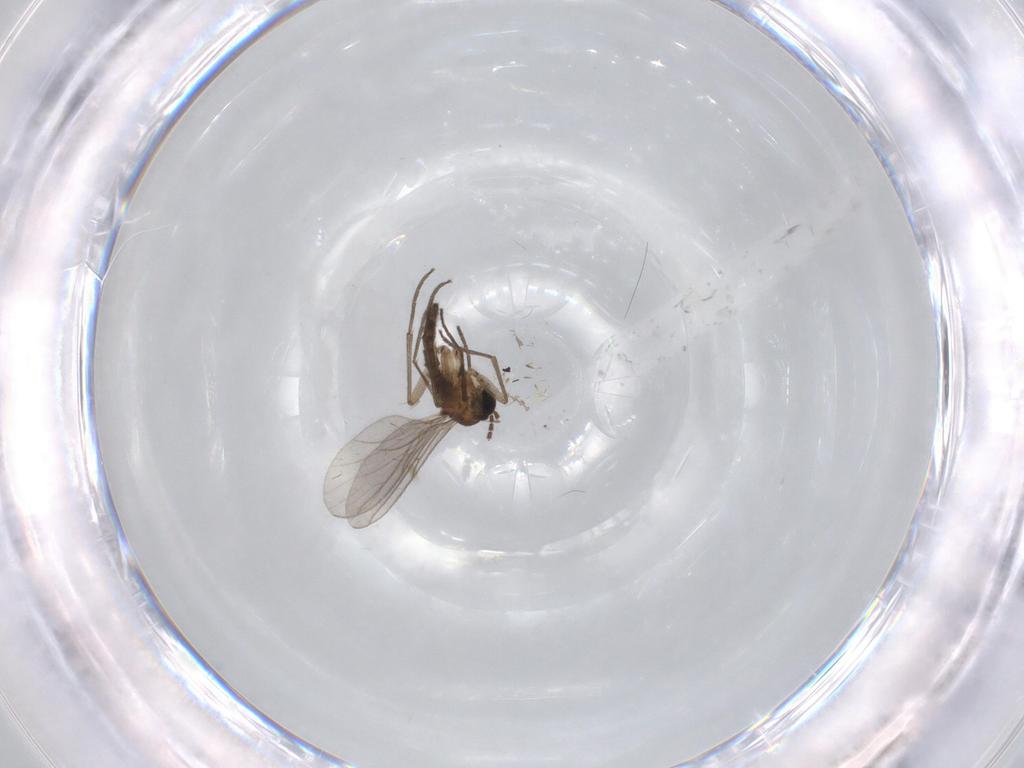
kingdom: Animalia
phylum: Arthropoda
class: Insecta
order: Diptera
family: Sciaridae
